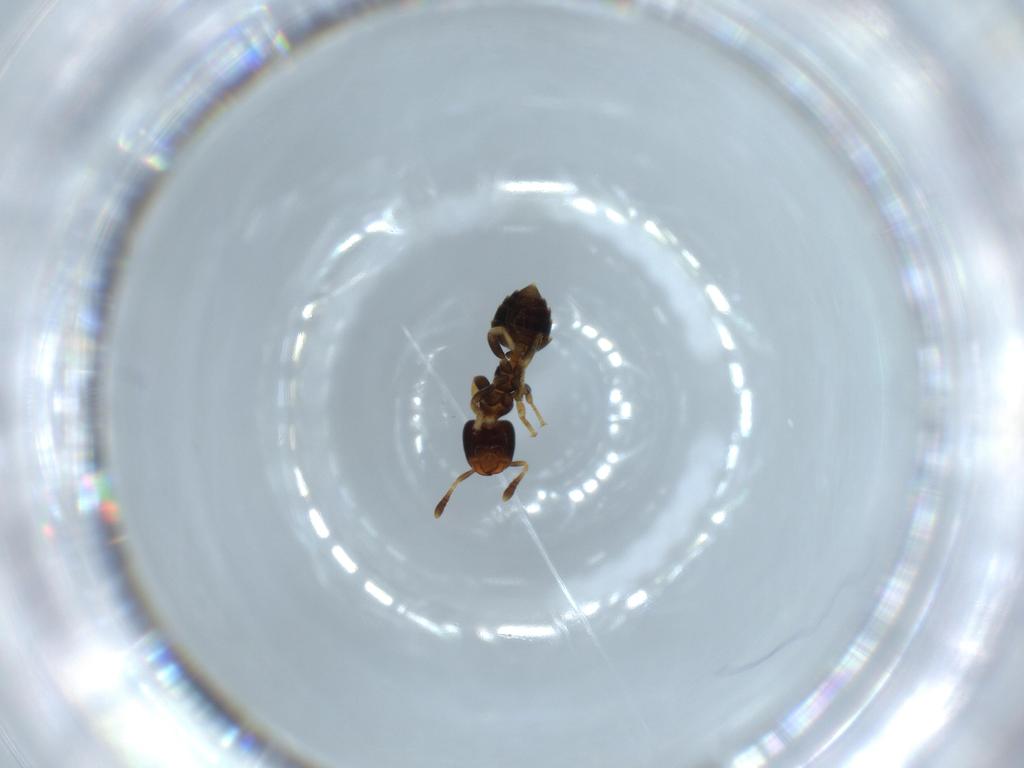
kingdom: Animalia
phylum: Arthropoda
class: Insecta
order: Hymenoptera
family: Formicidae
